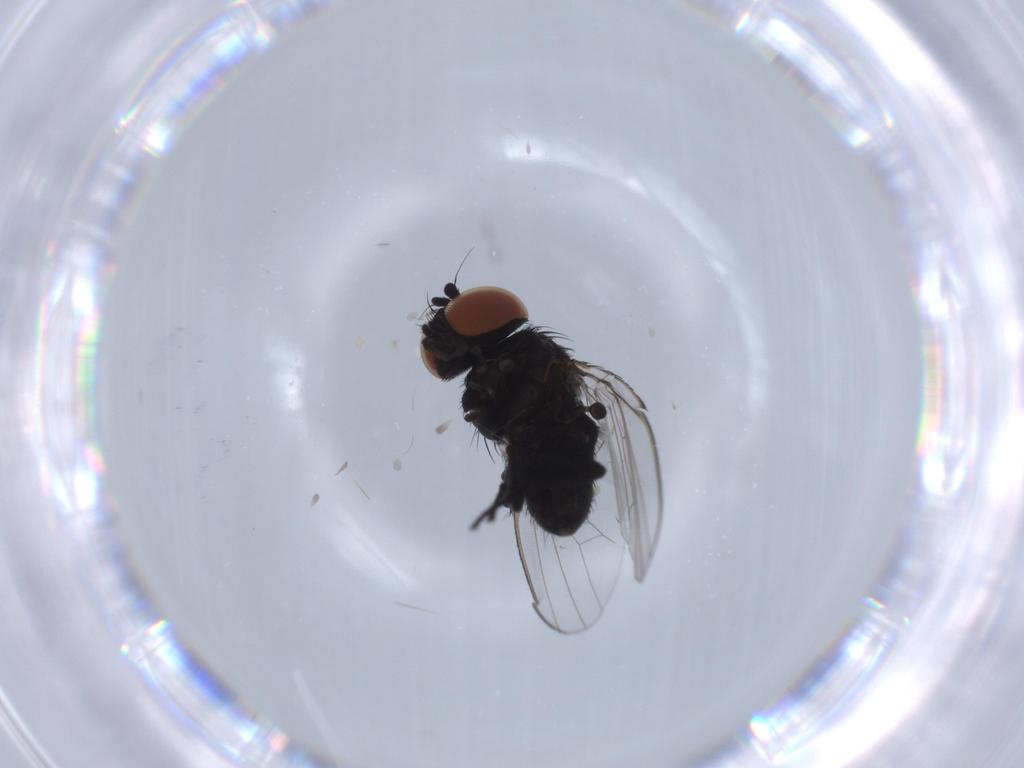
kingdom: Animalia
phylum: Arthropoda
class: Insecta
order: Diptera
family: Milichiidae
